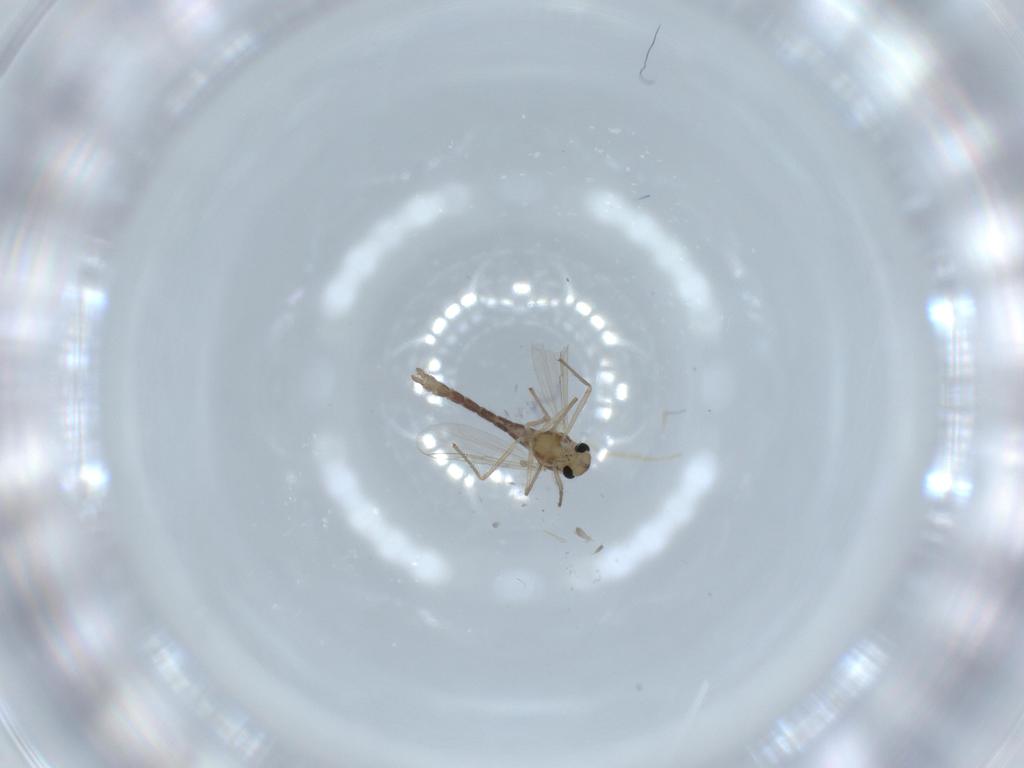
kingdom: Animalia
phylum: Arthropoda
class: Insecta
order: Diptera
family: Chironomidae
